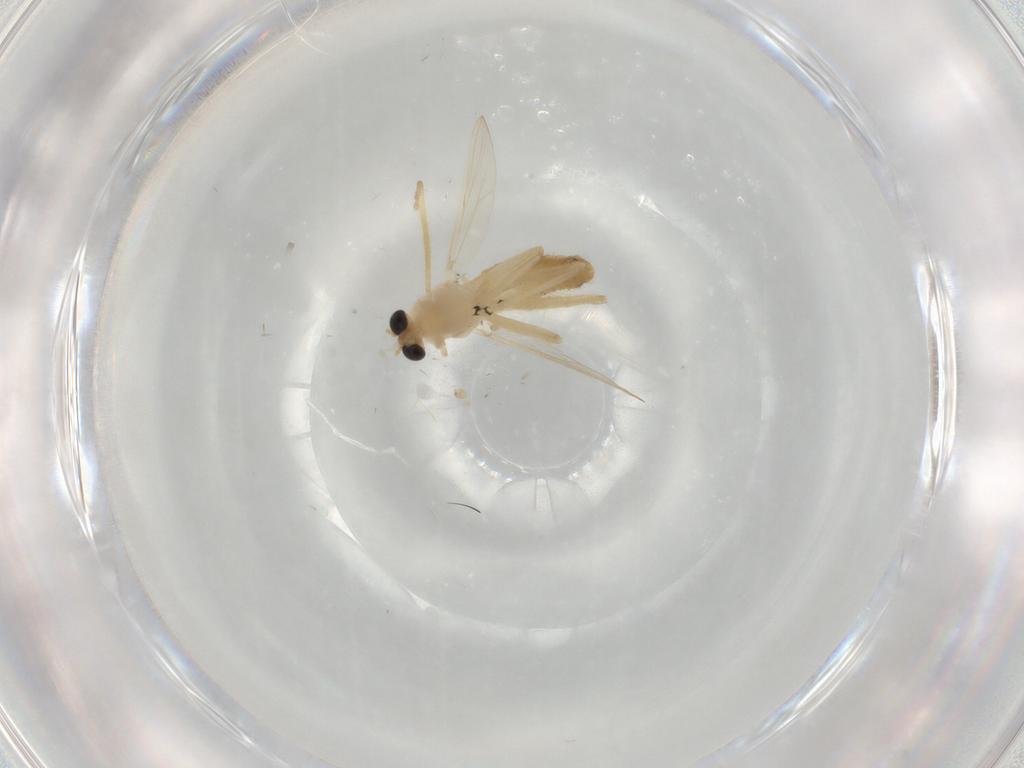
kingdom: Animalia
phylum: Arthropoda
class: Insecta
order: Diptera
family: Chironomidae
